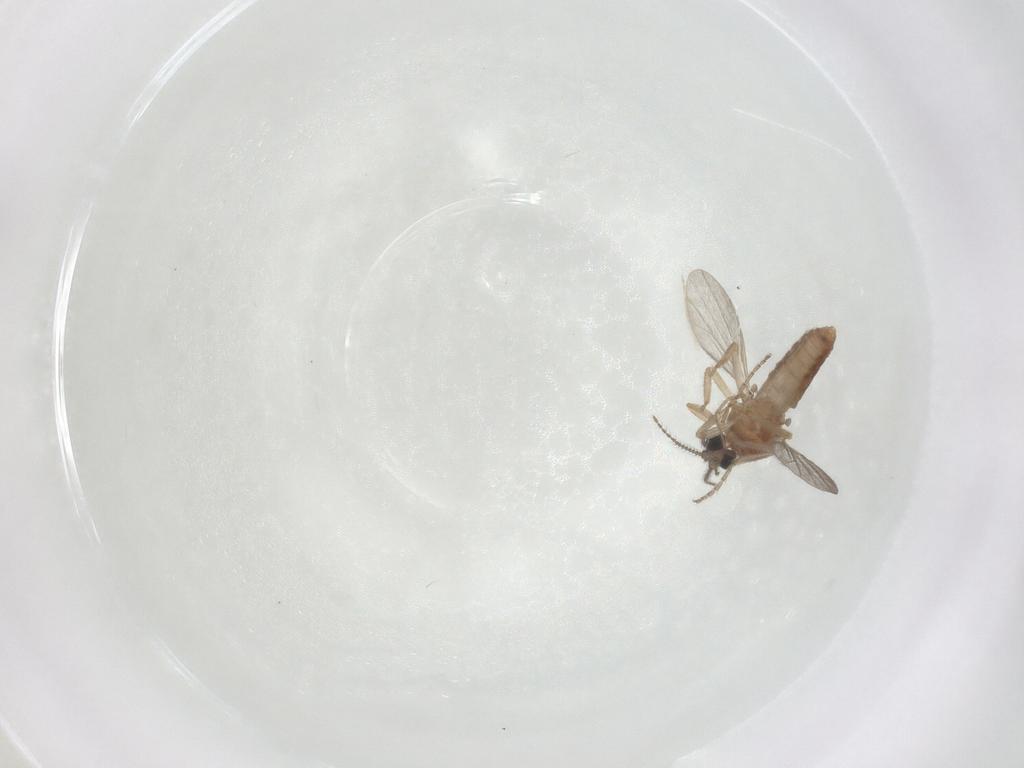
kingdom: Animalia
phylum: Arthropoda
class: Insecta
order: Diptera
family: Ceratopogonidae
